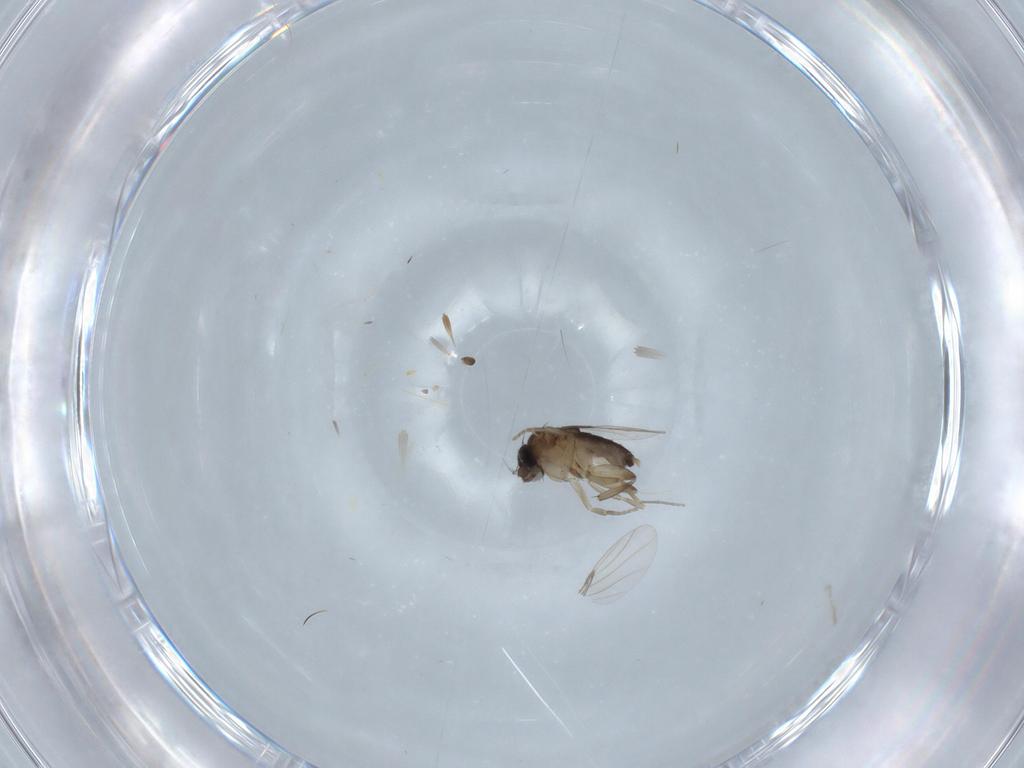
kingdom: Animalia
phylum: Arthropoda
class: Insecta
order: Diptera
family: Phoridae
